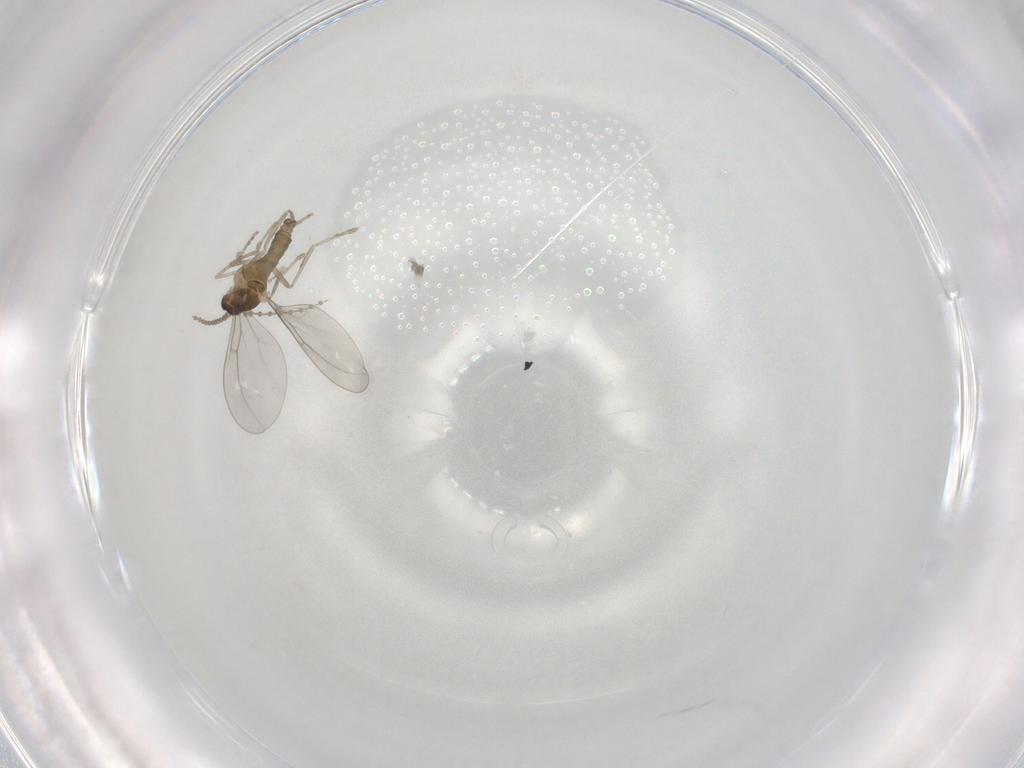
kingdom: Animalia
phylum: Arthropoda
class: Insecta
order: Diptera
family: Cecidomyiidae
